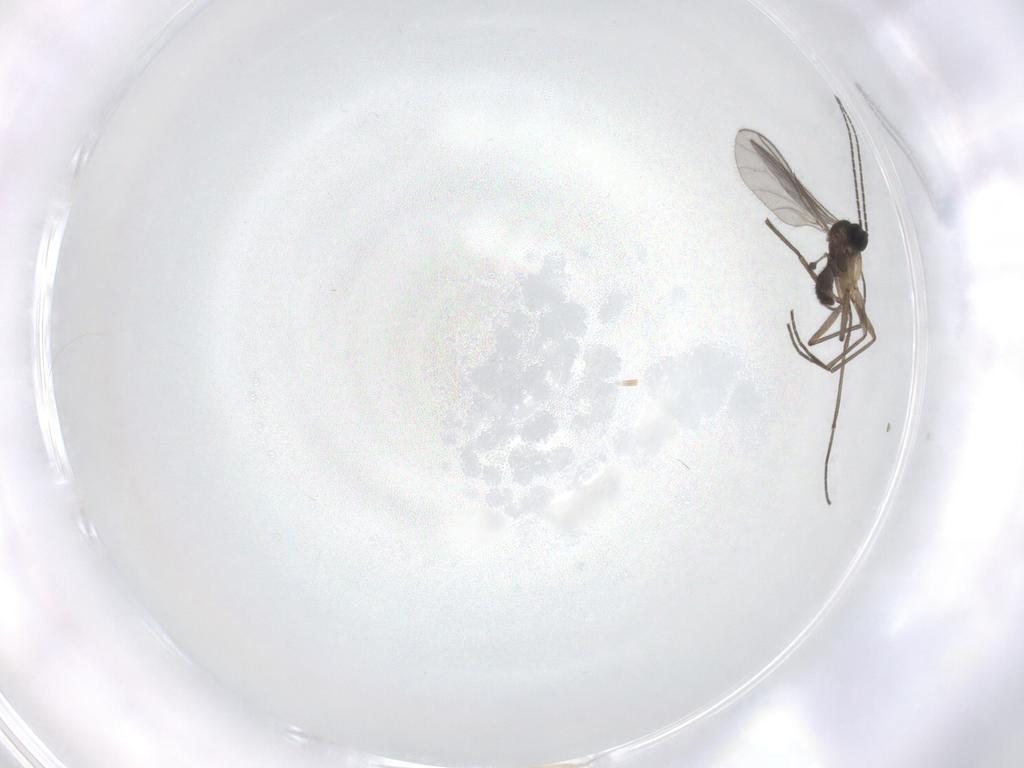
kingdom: Animalia
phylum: Arthropoda
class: Insecta
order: Diptera
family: Sciaridae
